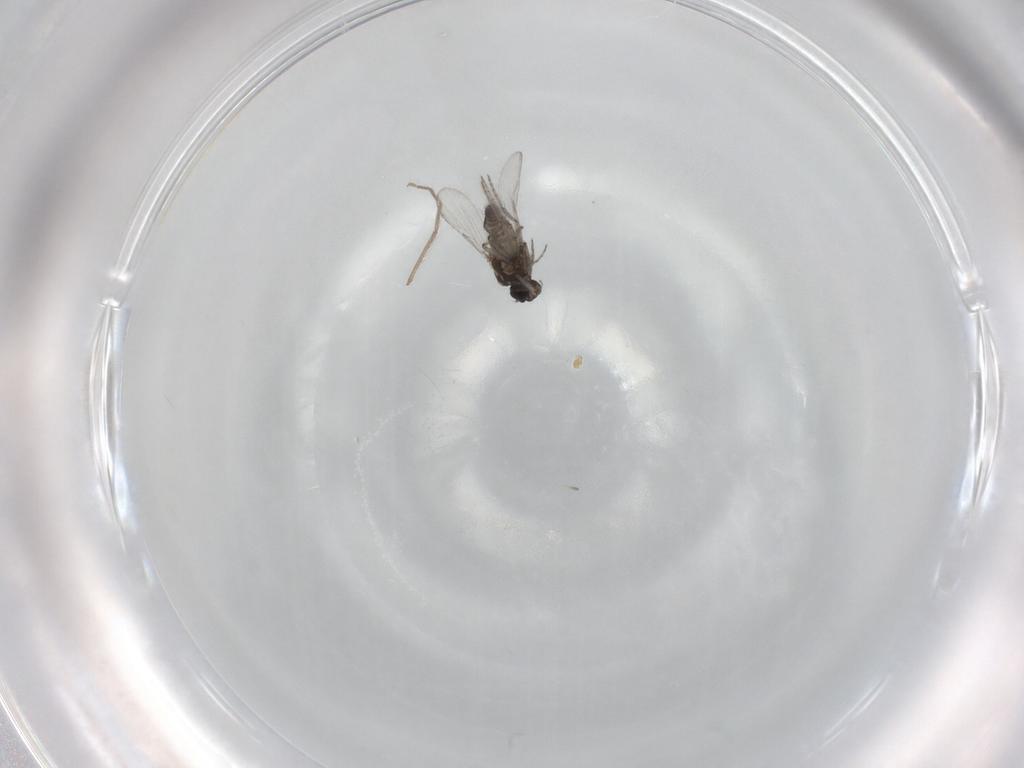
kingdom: Animalia
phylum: Arthropoda
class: Insecta
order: Diptera
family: Ceratopogonidae
